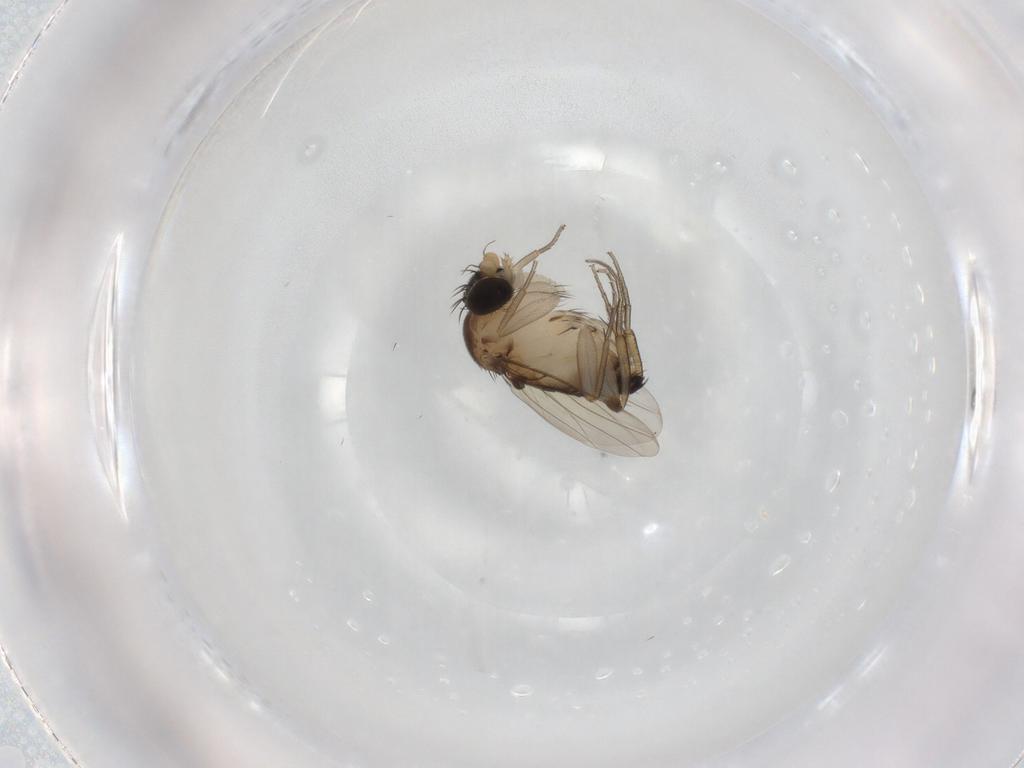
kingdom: Animalia
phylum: Arthropoda
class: Insecta
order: Diptera
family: Phoridae
